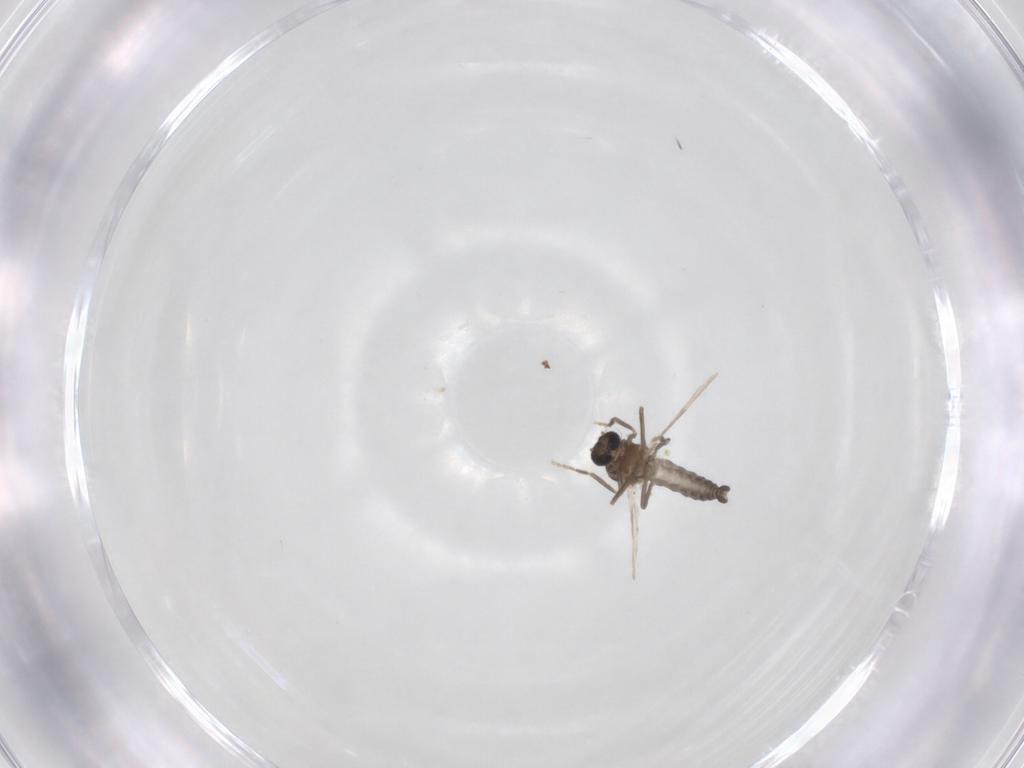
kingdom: Animalia
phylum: Arthropoda
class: Insecta
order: Diptera
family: Ceratopogonidae
